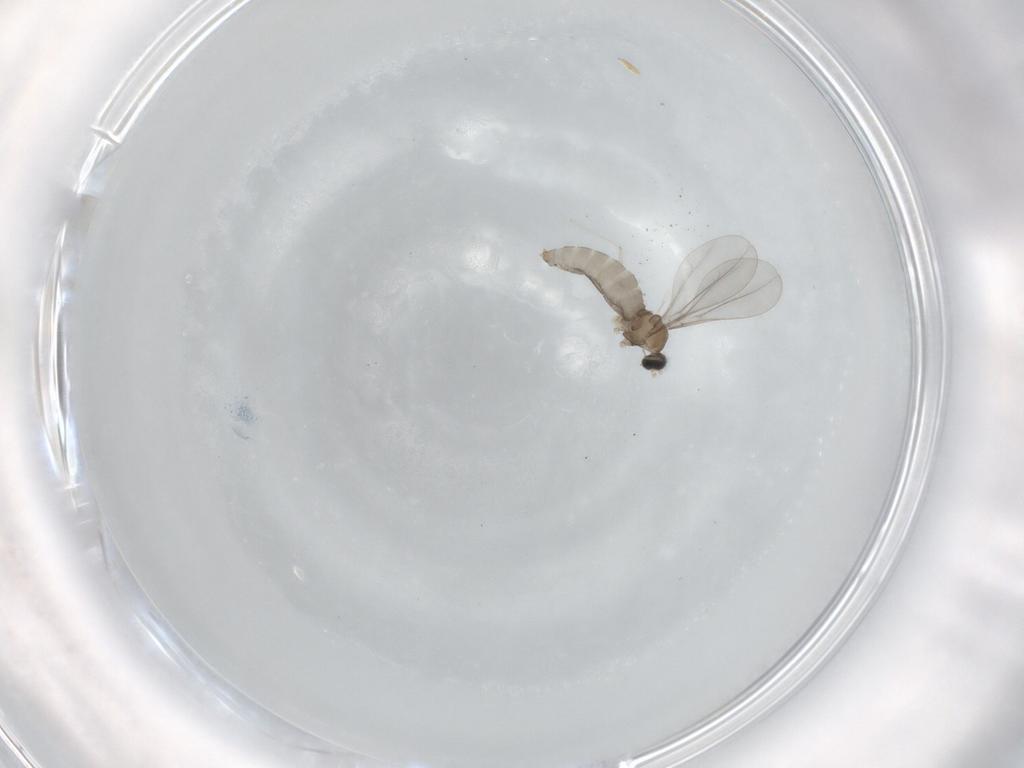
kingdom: Animalia
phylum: Arthropoda
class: Insecta
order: Diptera
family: Cecidomyiidae
